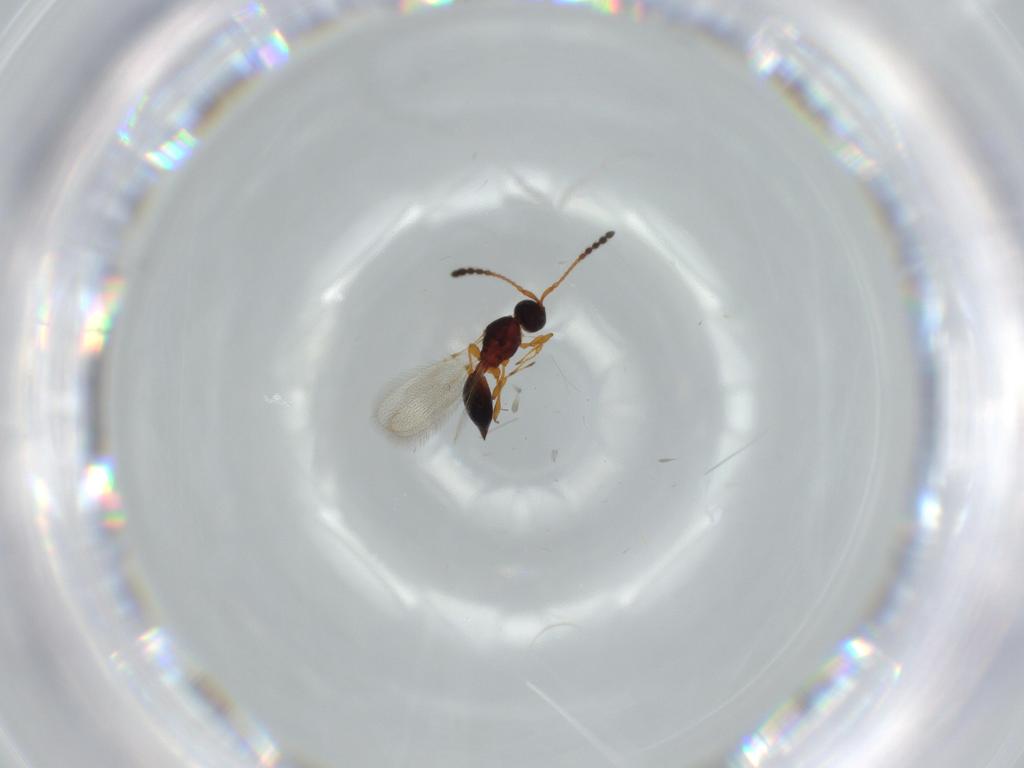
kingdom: Animalia
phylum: Arthropoda
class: Insecta
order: Hymenoptera
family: Diapriidae
